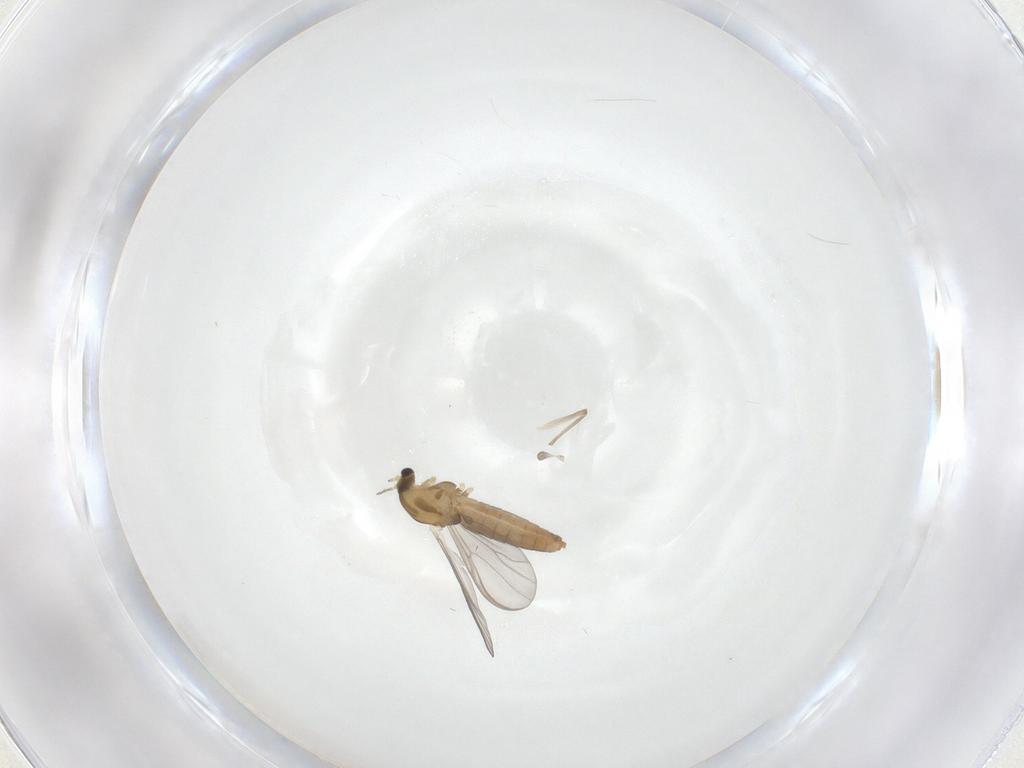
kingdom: Animalia
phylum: Arthropoda
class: Insecta
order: Diptera
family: Chironomidae
